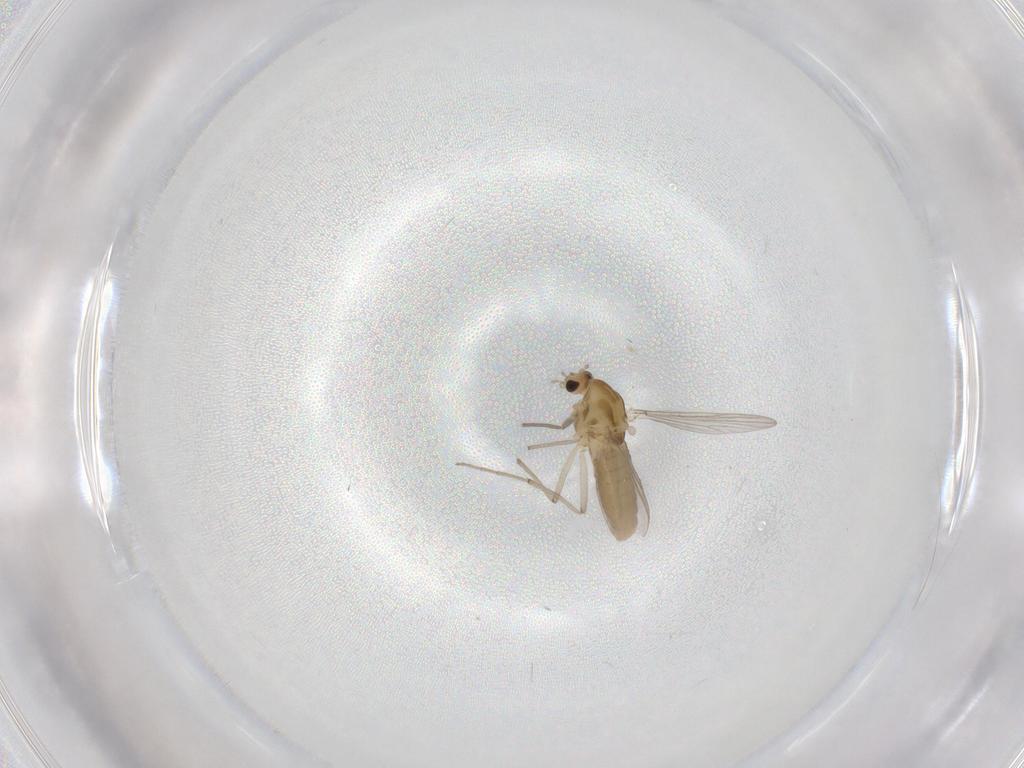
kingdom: Animalia
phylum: Arthropoda
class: Insecta
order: Diptera
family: Chironomidae
